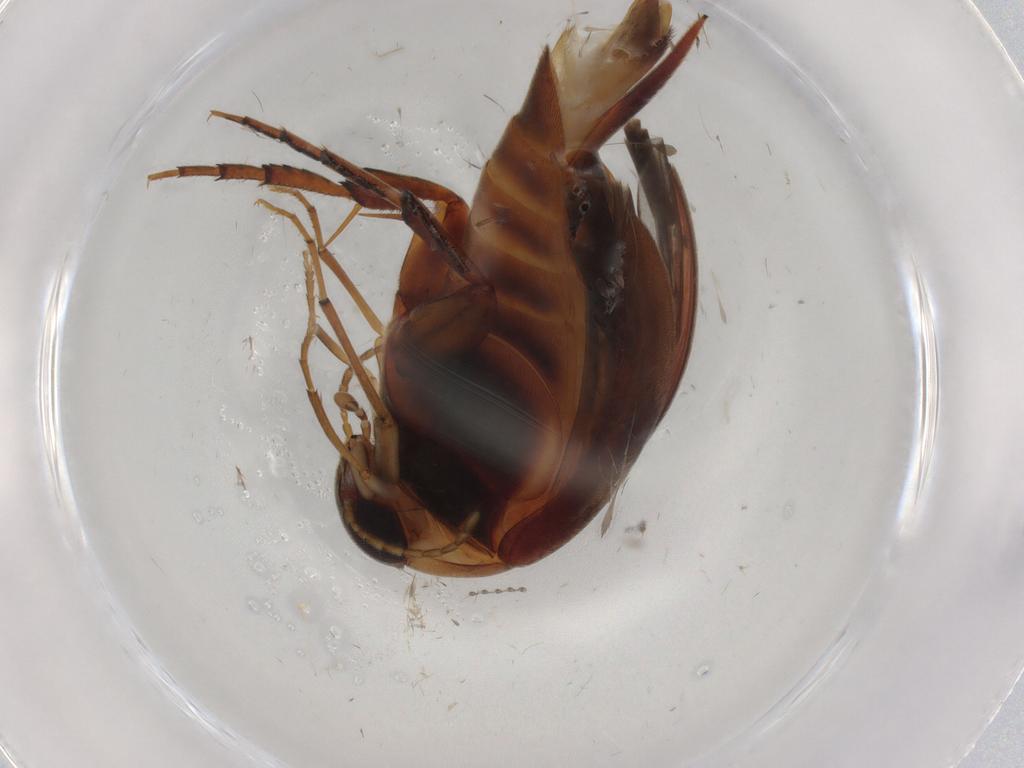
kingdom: Animalia
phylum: Arthropoda
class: Insecta
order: Coleoptera
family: Mordellidae
